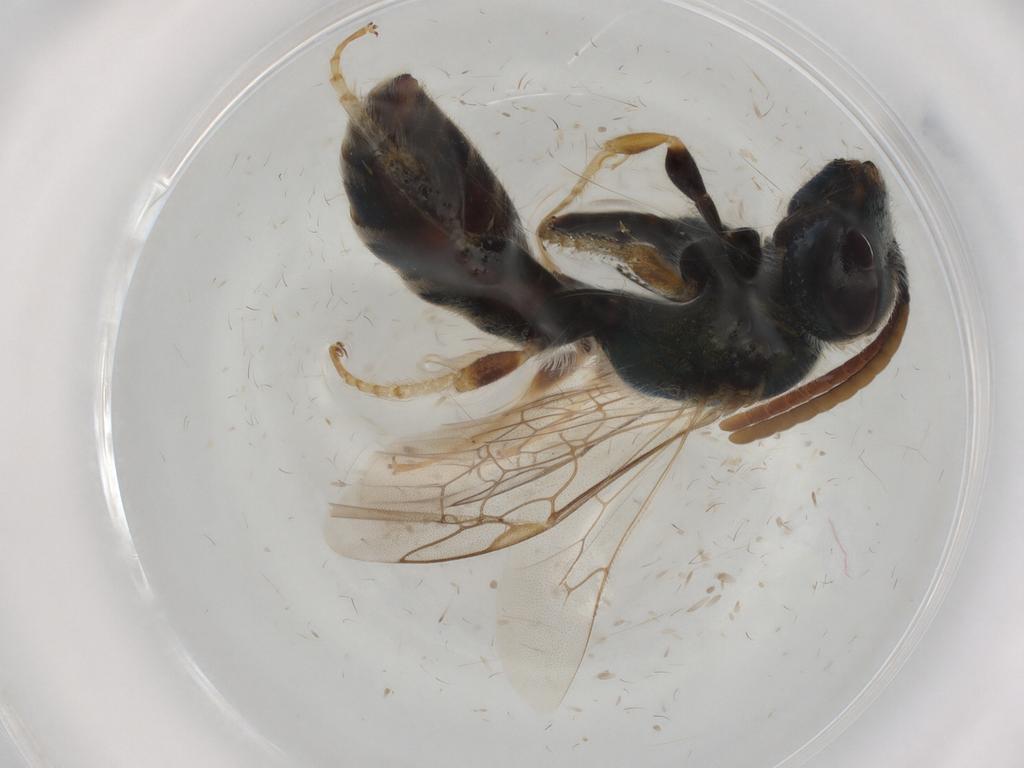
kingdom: Animalia
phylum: Arthropoda
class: Insecta
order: Hymenoptera
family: Halictidae
